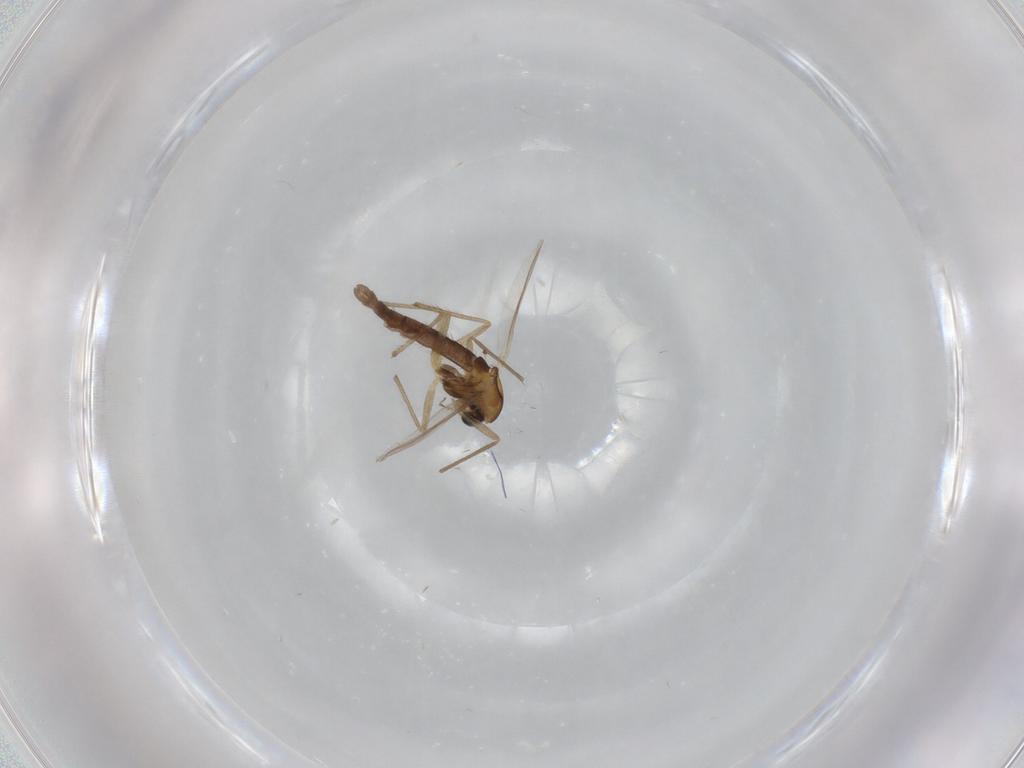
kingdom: Animalia
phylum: Arthropoda
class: Insecta
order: Diptera
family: Chironomidae
